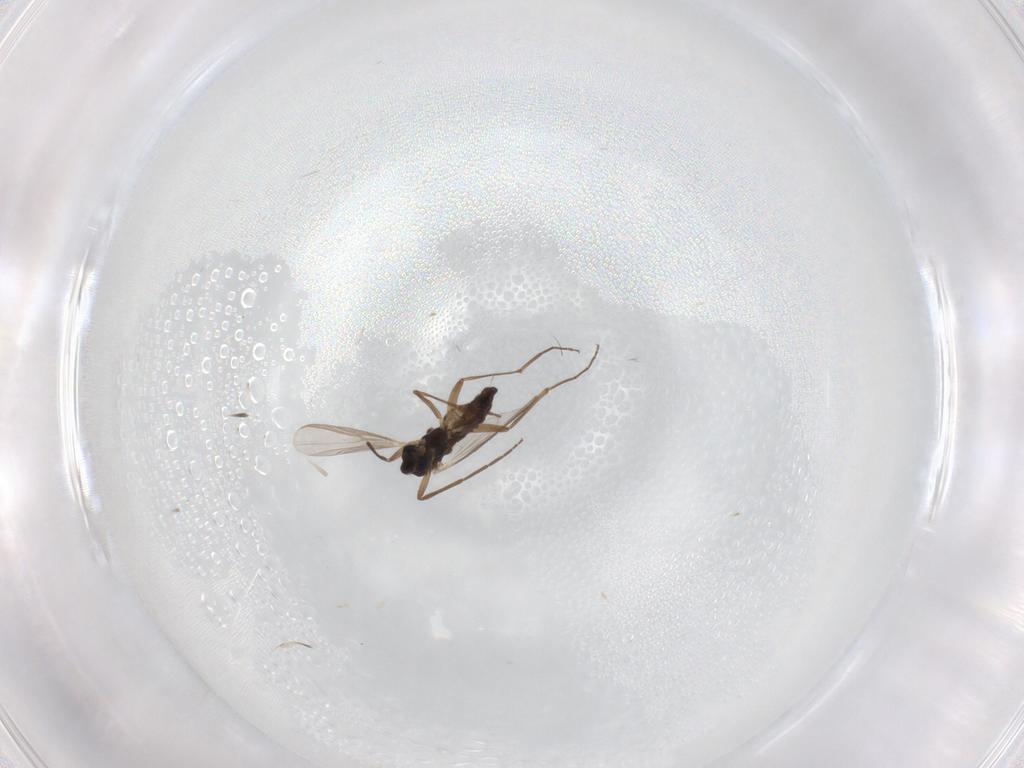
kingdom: Animalia
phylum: Arthropoda
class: Insecta
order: Diptera
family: Chironomidae
